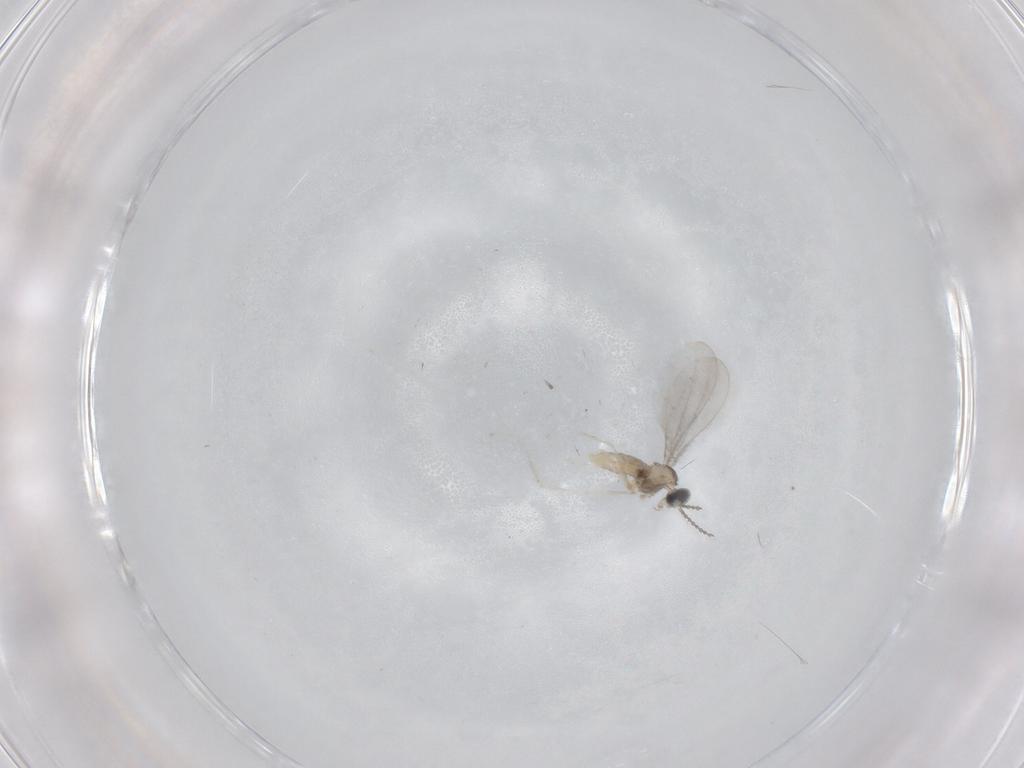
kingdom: Animalia
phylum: Arthropoda
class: Insecta
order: Diptera
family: Cecidomyiidae
